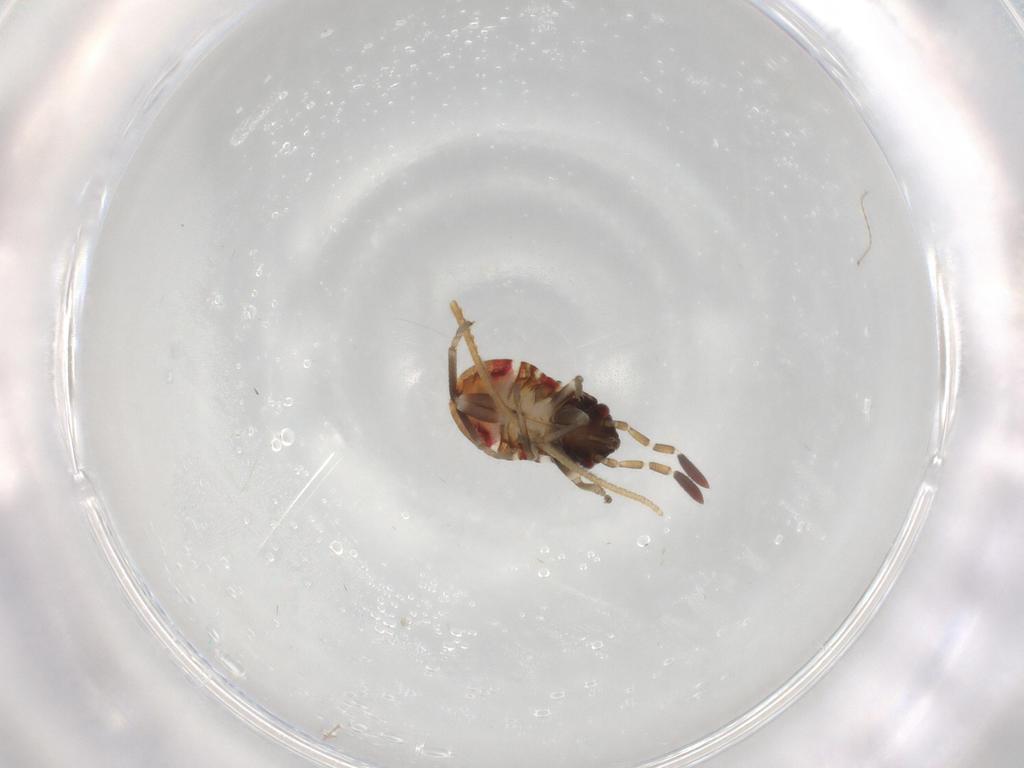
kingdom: Animalia
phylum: Arthropoda
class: Insecta
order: Hemiptera
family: Rhyparochromidae
